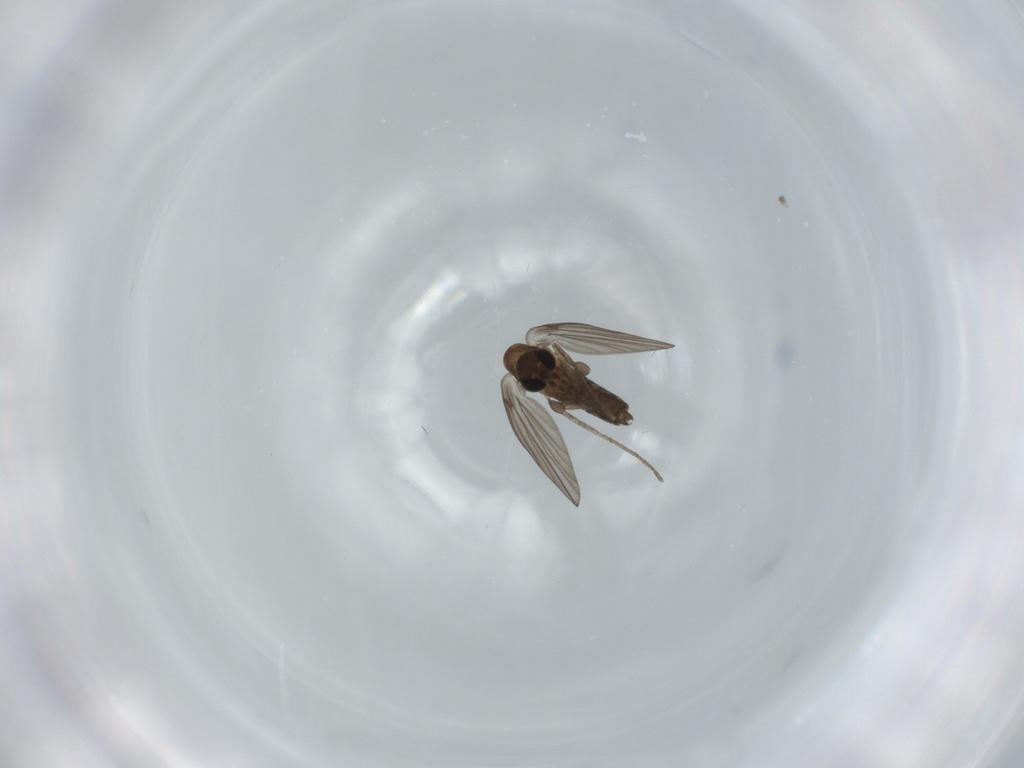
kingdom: Animalia
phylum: Arthropoda
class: Insecta
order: Diptera
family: Psychodidae
